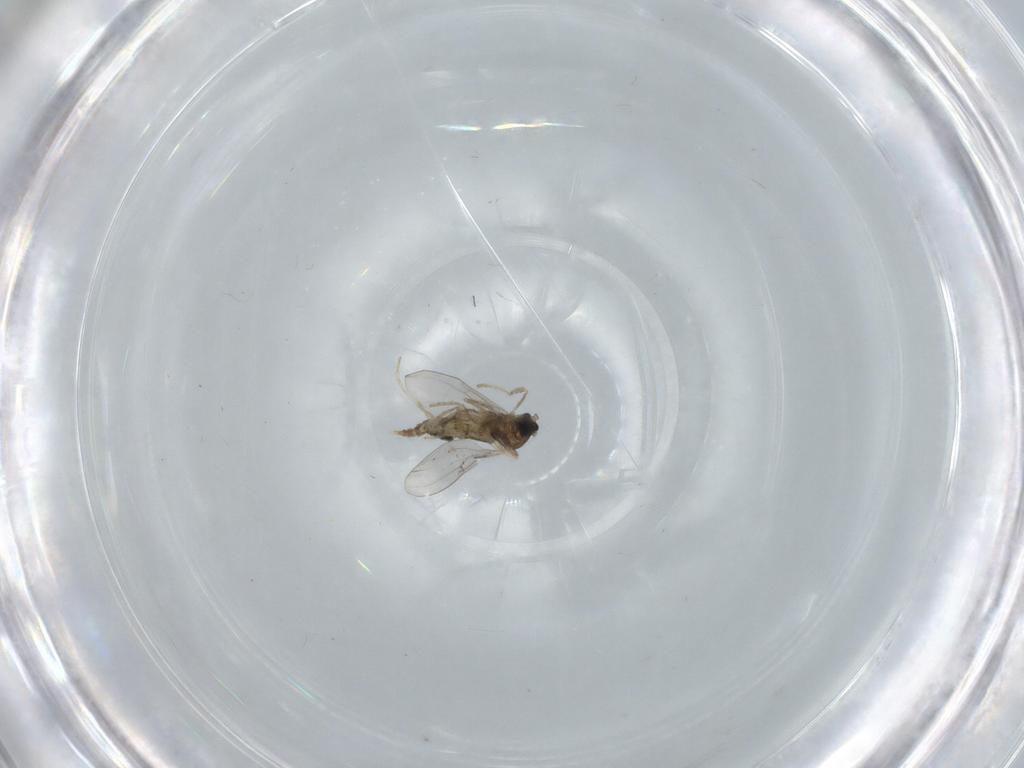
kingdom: Animalia
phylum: Arthropoda
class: Insecta
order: Diptera
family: Cecidomyiidae
